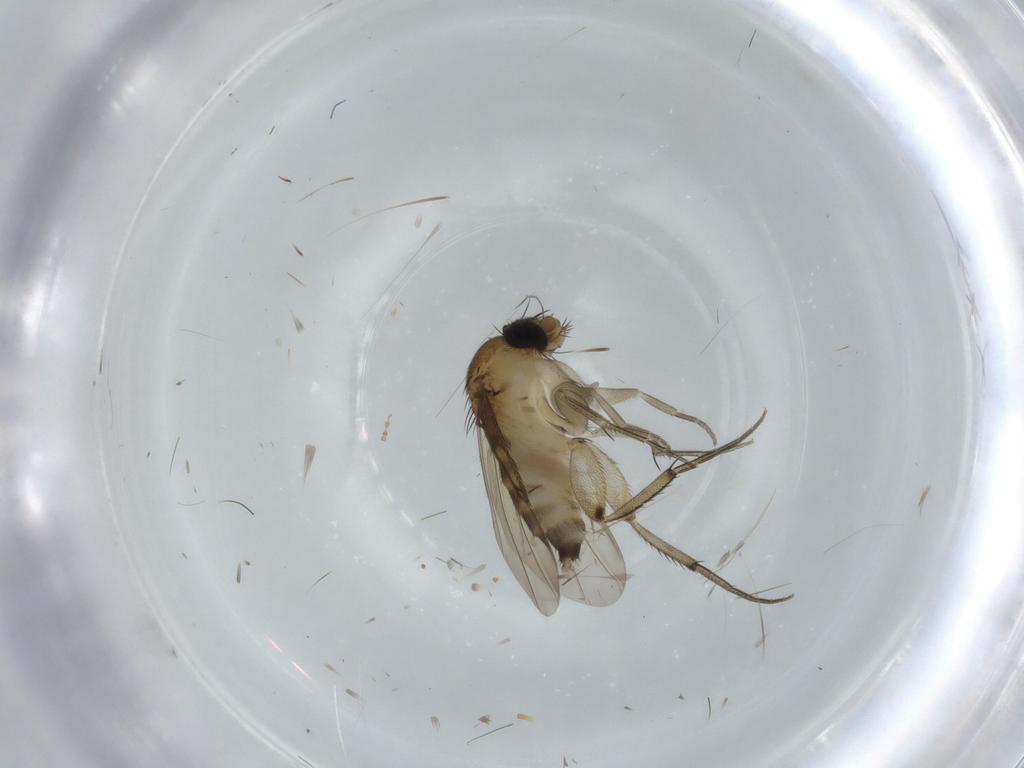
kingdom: Animalia
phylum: Arthropoda
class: Insecta
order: Diptera
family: Phoridae
